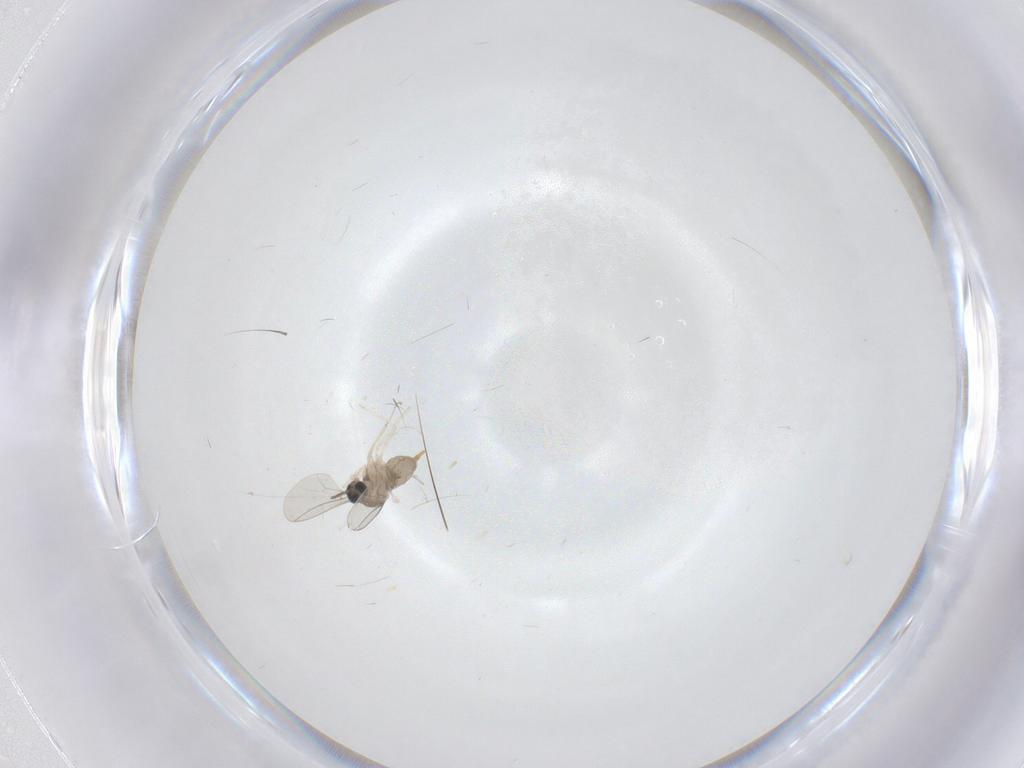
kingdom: Animalia
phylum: Arthropoda
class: Insecta
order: Diptera
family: Cecidomyiidae
